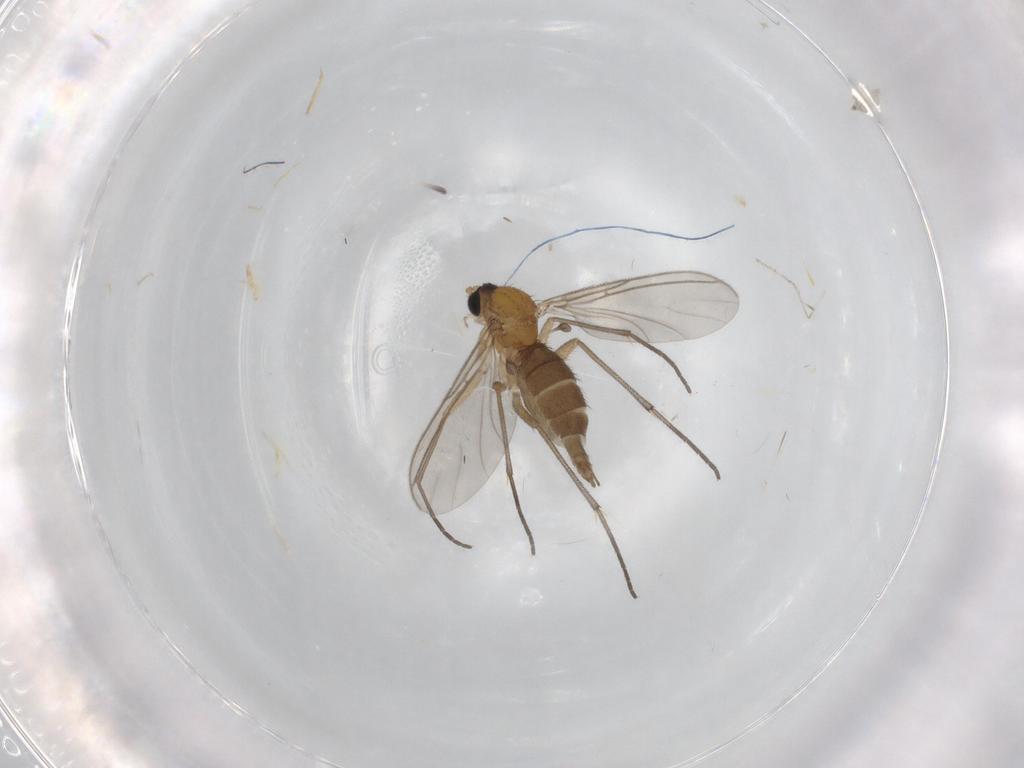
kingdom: Animalia
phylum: Arthropoda
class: Insecta
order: Diptera
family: Sciaridae
